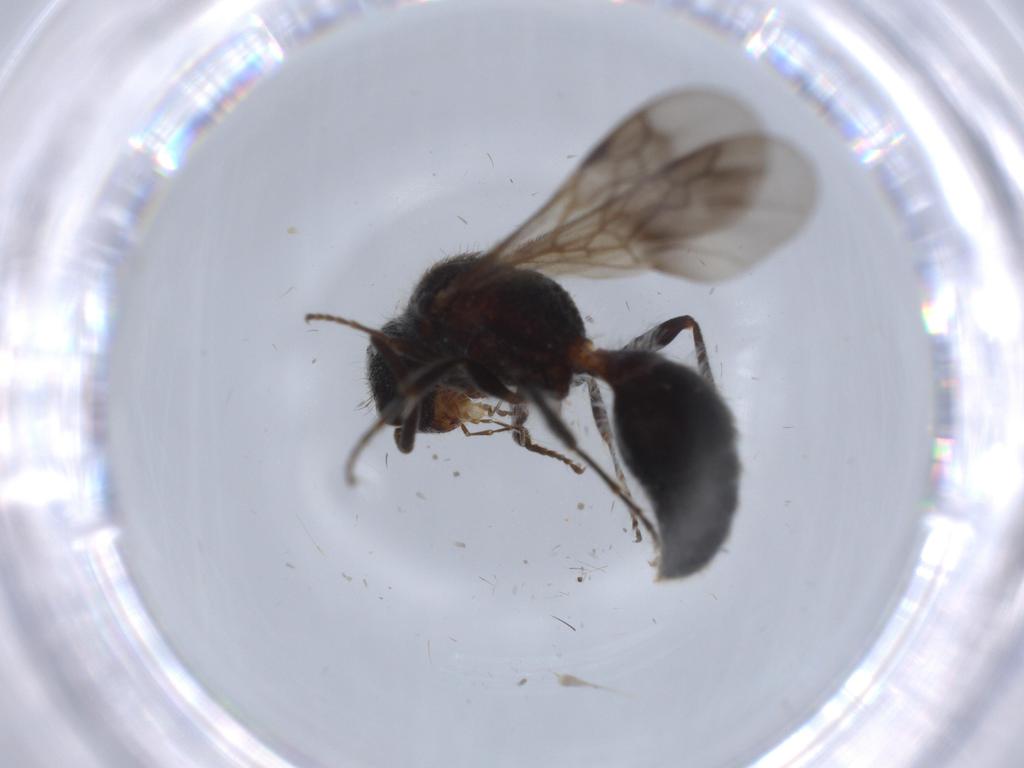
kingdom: Animalia
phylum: Arthropoda
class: Insecta
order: Hymenoptera
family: Mutillidae
